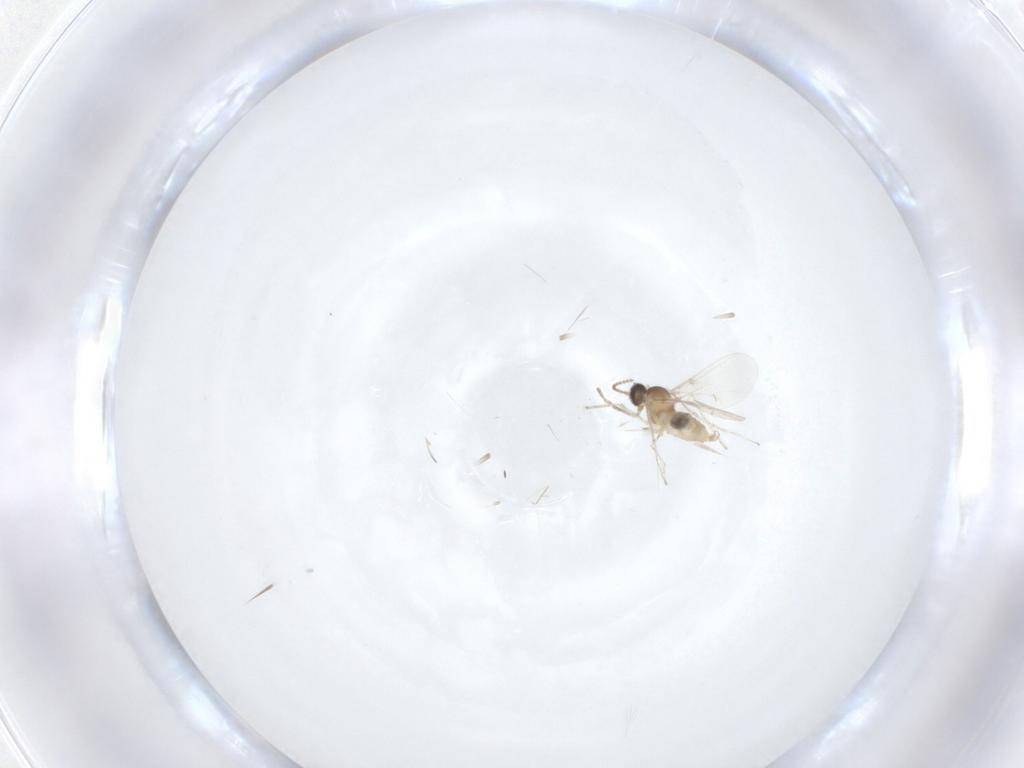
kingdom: Animalia
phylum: Arthropoda
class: Insecta
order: Diptera
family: Cecidomyiidae
